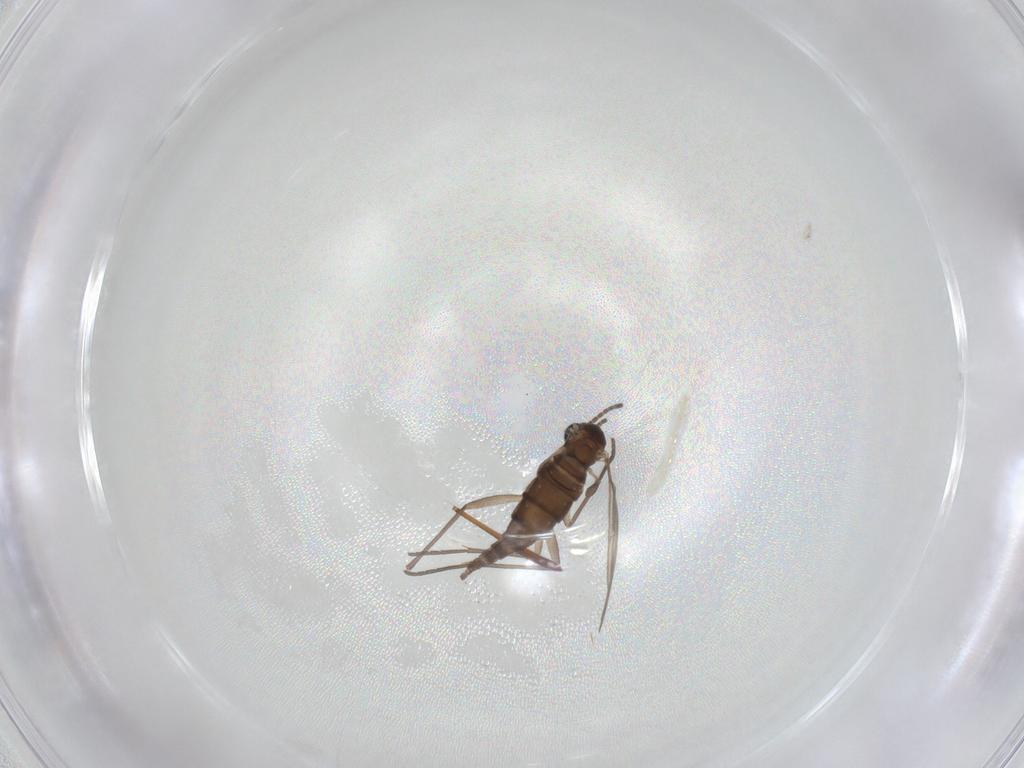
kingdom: Animalia
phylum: Arthropoda
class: Insecta
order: Diptera
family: Sciaridae
